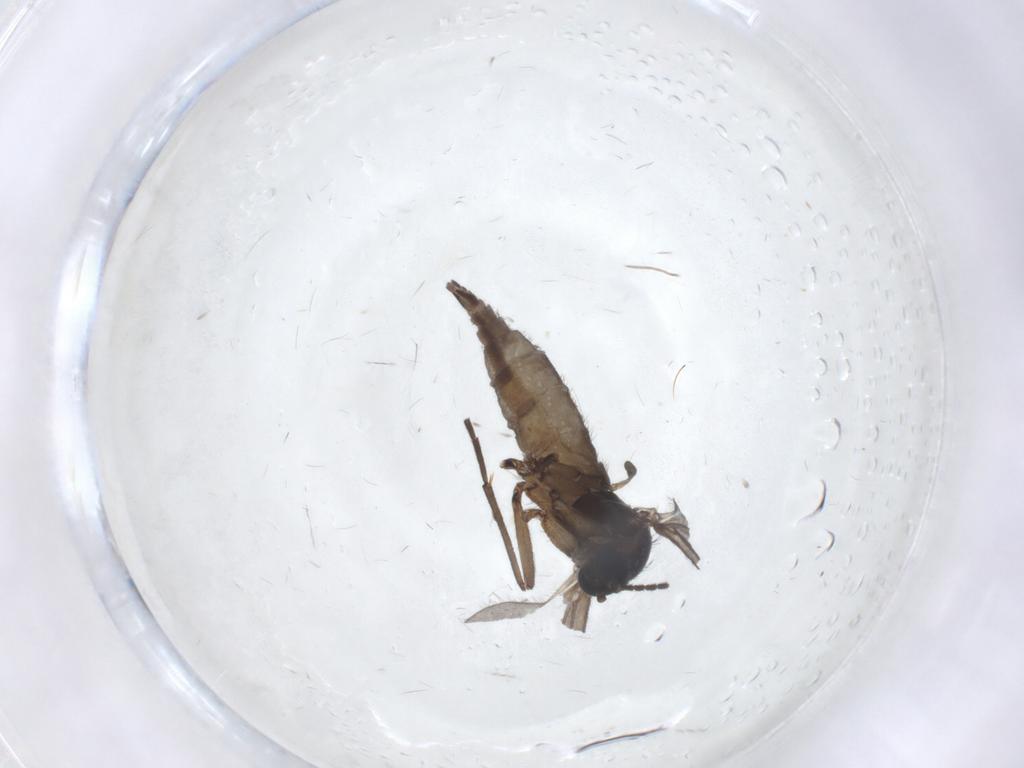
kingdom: Animalia
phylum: Arthropoda
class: Insecta
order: Diptera
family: Sciaridae
